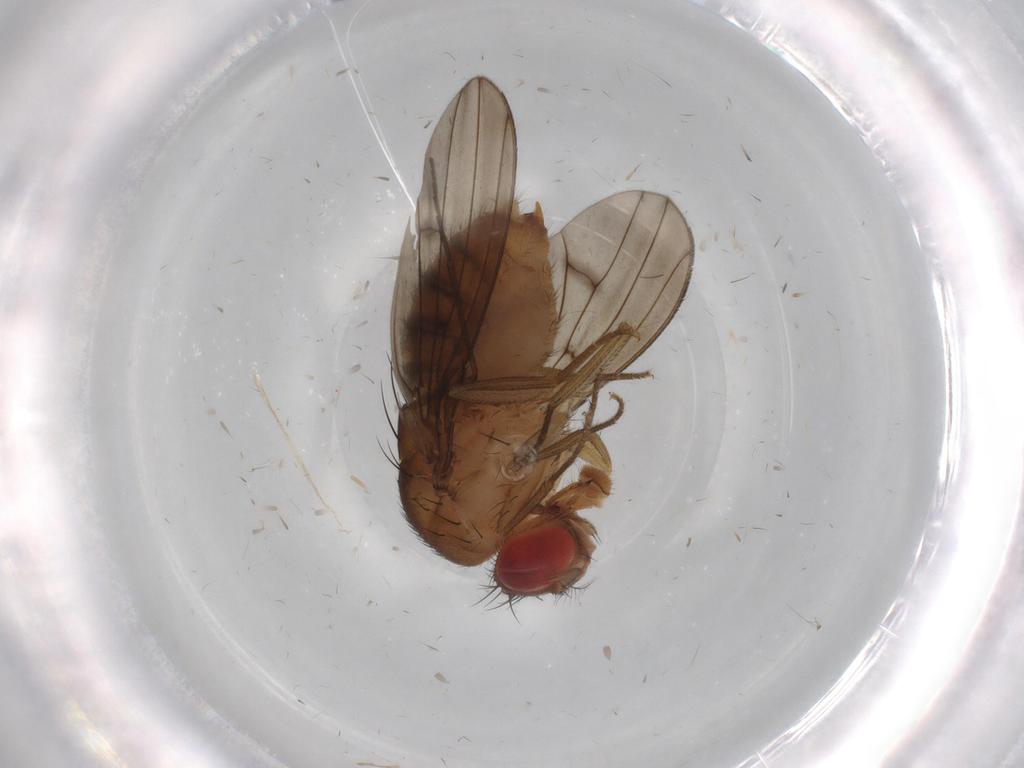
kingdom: Animalia
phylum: Arthropoda
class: Insecta
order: Diptera
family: Drosophilidae
